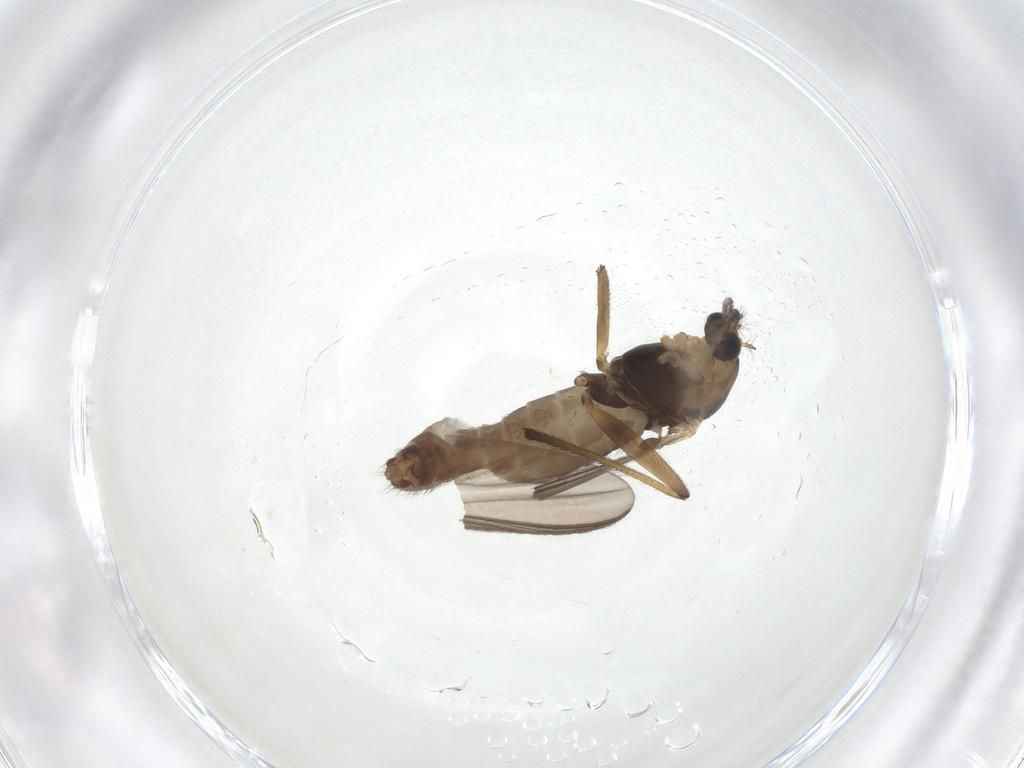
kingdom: Animalia
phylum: Arthropoda
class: Insecta
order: Diptera
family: Chironomidae
